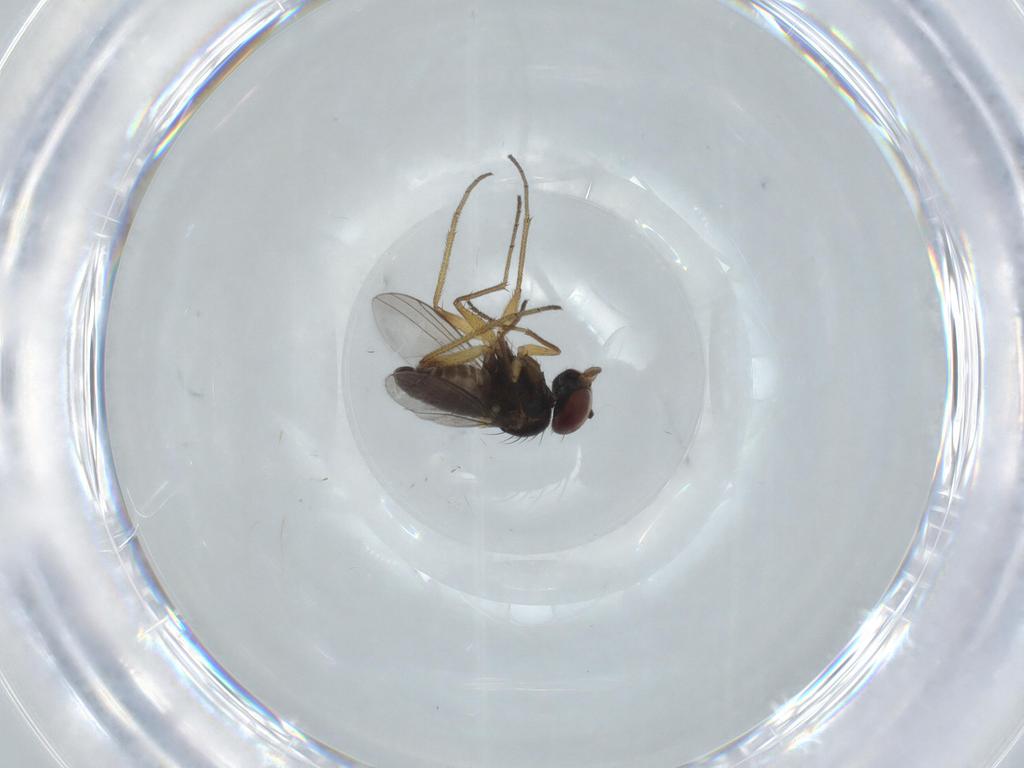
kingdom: Animalia
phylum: Arthropoda
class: Insecta
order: Diptera
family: Dolichopodidae
